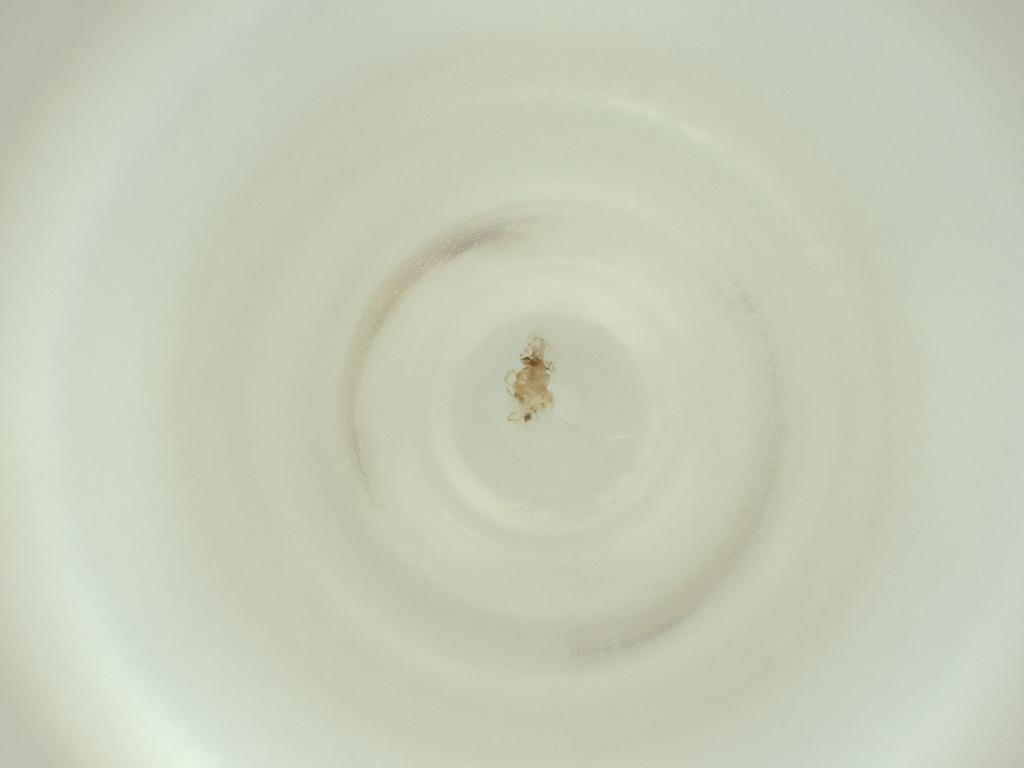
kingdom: Animalia
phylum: Arthropoda
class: Insecta
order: Diptera
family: Cecidomyiidae
